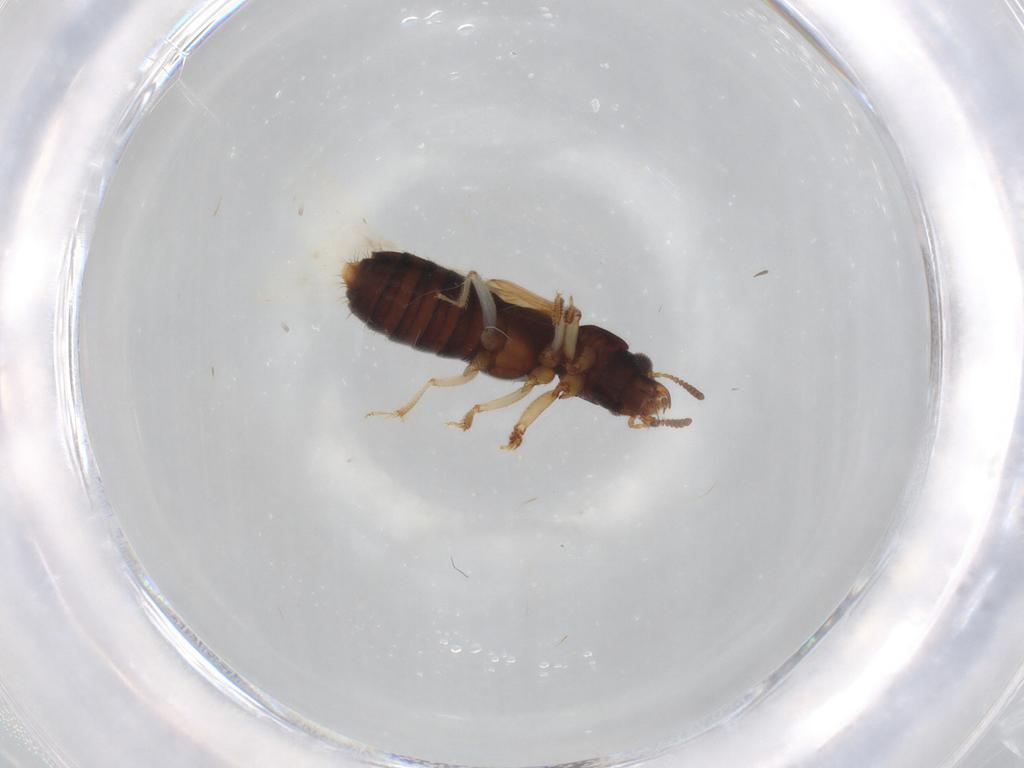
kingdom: Animalia
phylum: Arthropoda
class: Insecta
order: Coleoptera
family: Staphylinidae
